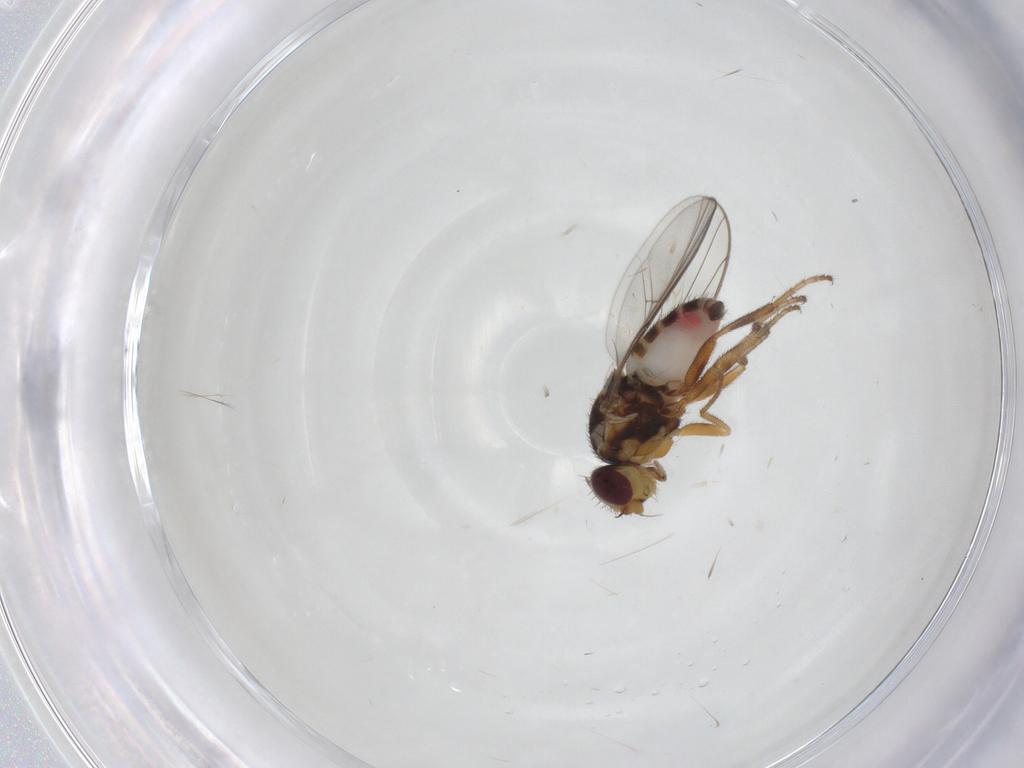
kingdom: Animalia
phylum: Arthropoda
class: Insecta
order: Diptera
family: Chloropidae
